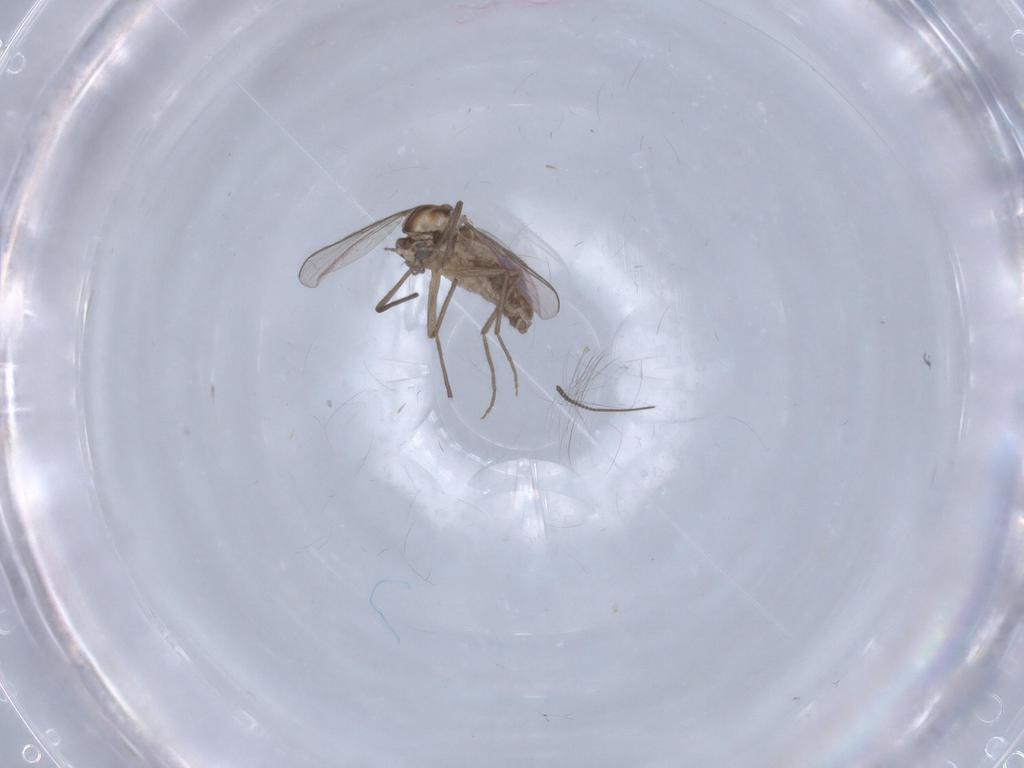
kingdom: Animalia
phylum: Arthropoda
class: Insecta
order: Diptera
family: Chironomidae
